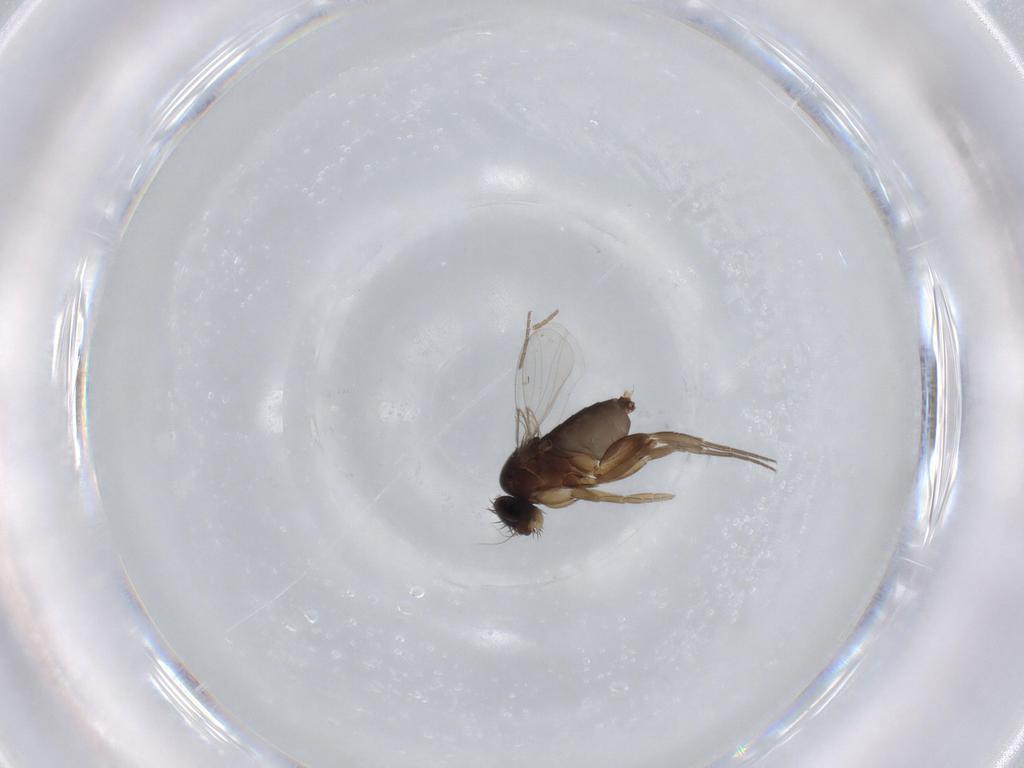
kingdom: Animalia
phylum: Arthropoda
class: Insecta
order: Diptera
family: Phoridae
